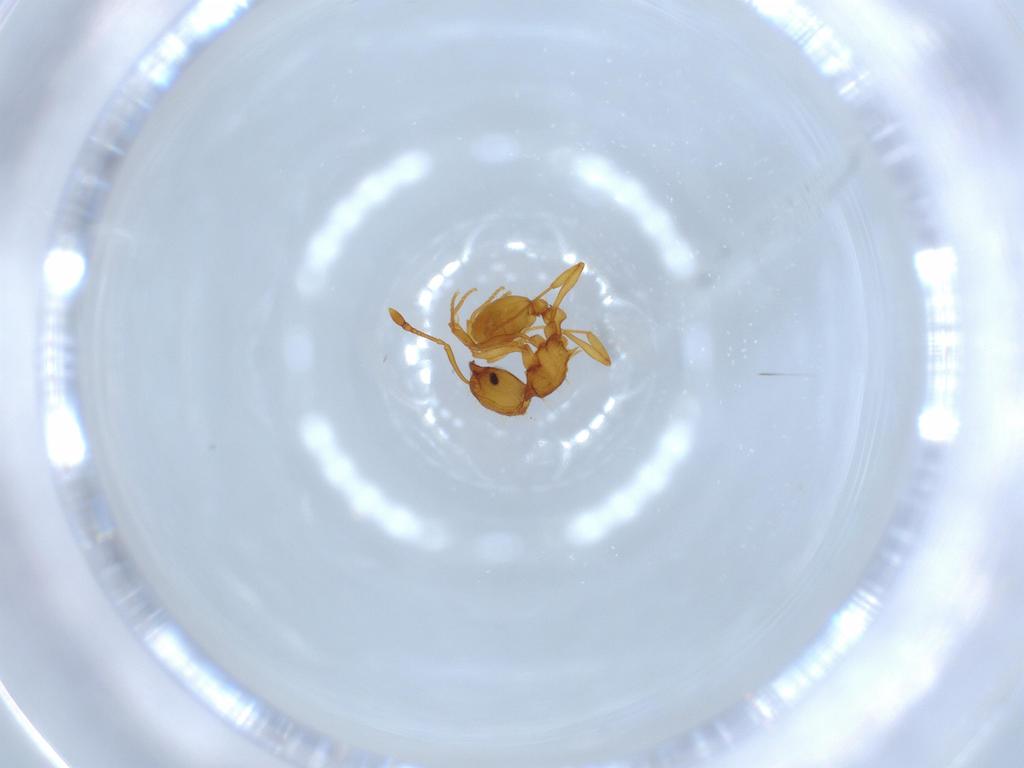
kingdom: Animalia
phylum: Arthropoda
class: Insecta
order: Hymenoptera
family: Formicidae
